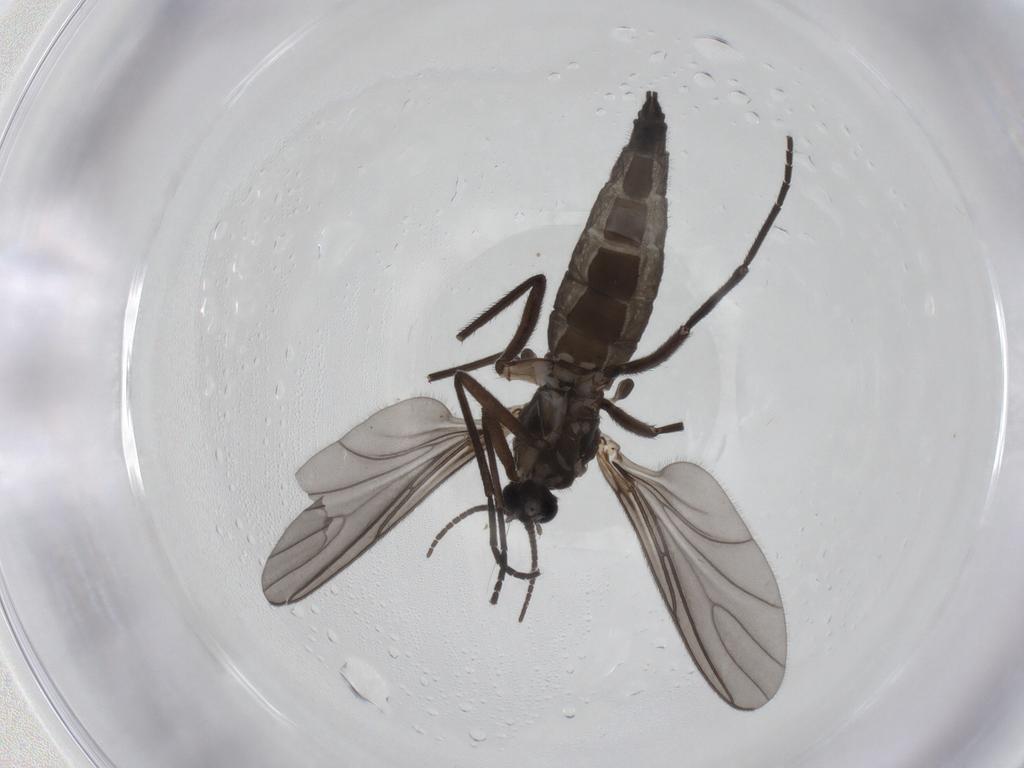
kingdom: Animalia
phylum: Arthropoda
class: Insecta
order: Diptera
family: Sciaridae
